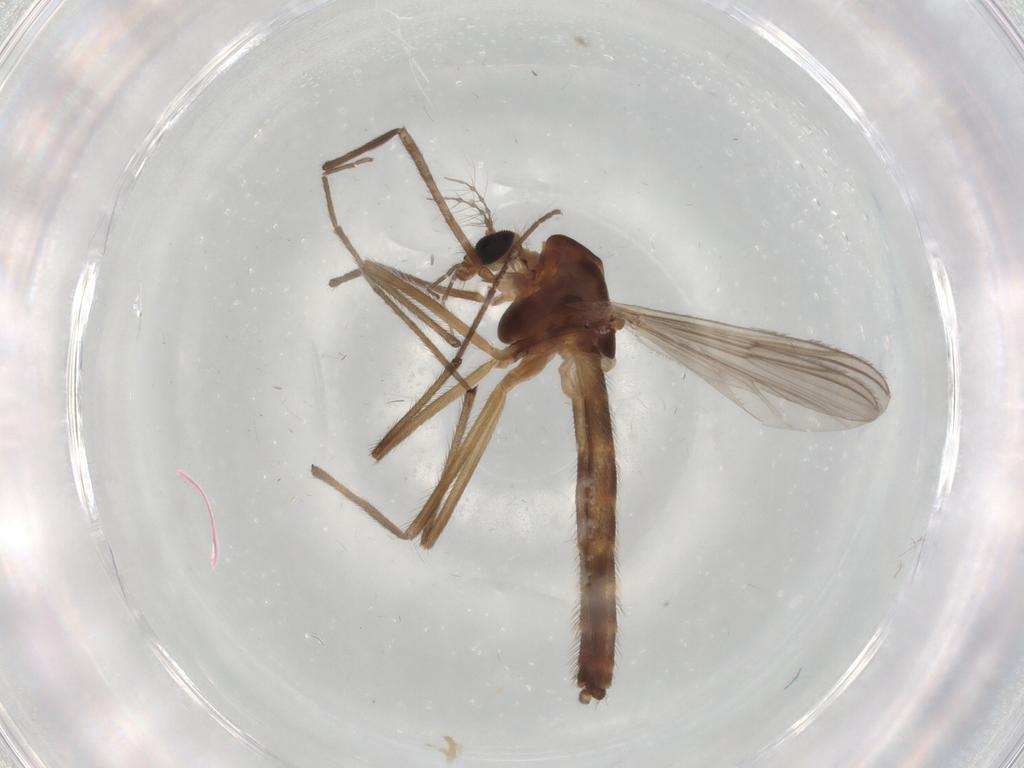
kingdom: Animalia
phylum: Arthropoda
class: Insecta
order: Diptera
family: Chironomidae
